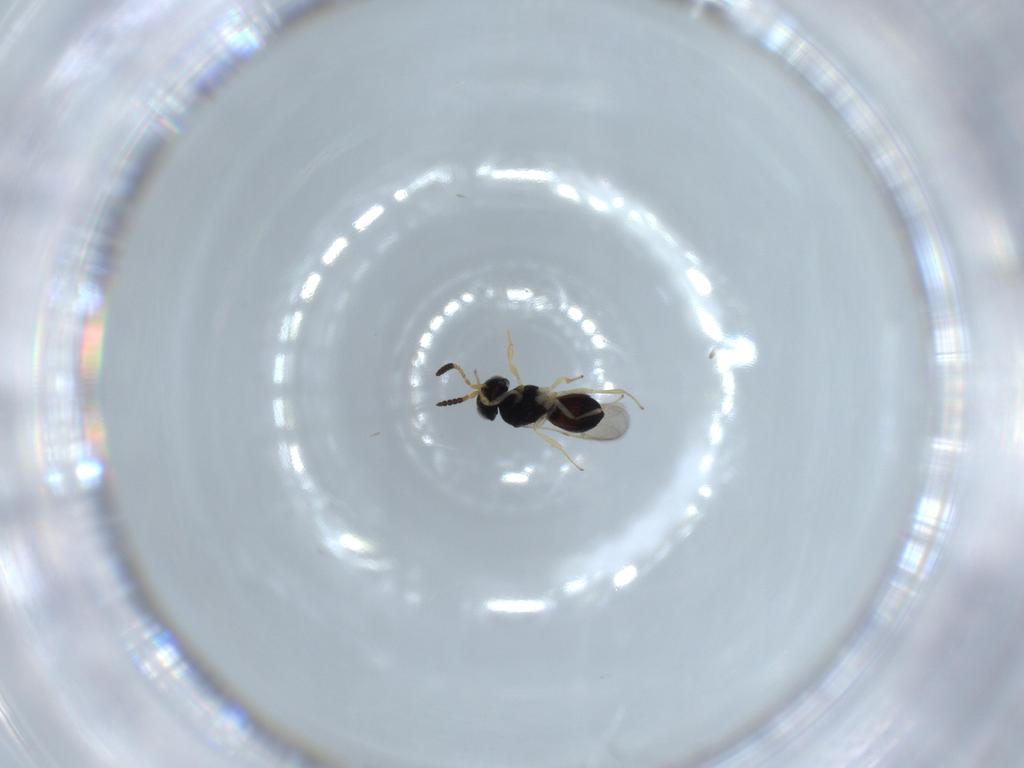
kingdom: Animalia
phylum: Arthropoda
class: Insecta
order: Hymenoptera
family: Scelionidae
